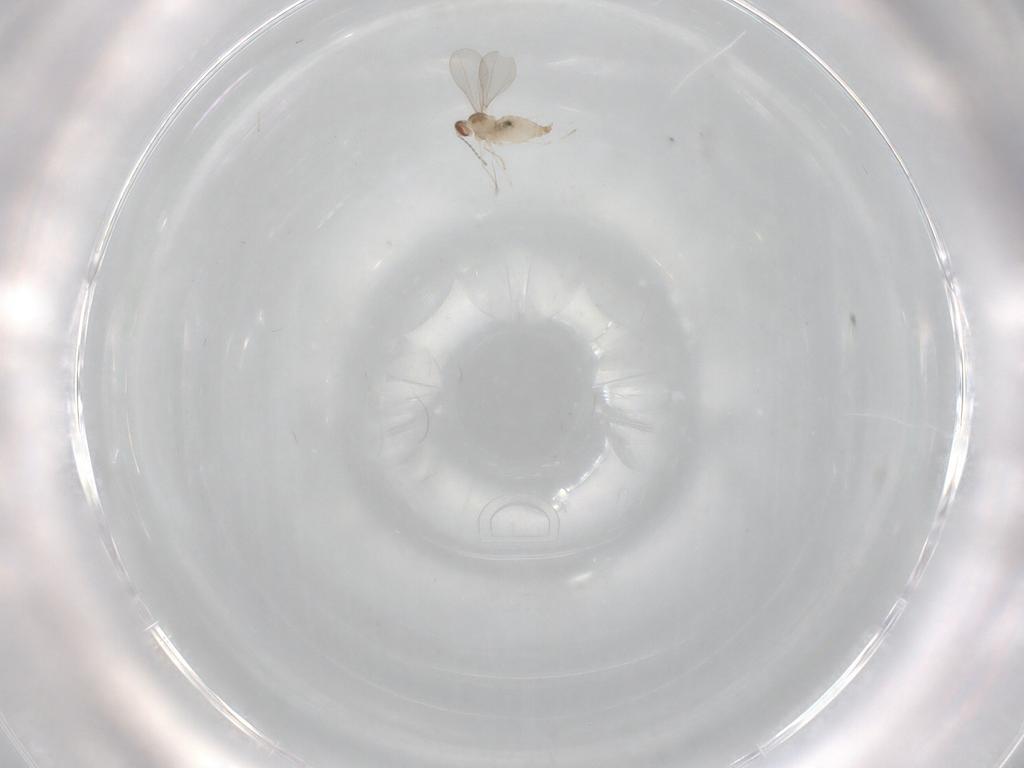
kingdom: Animalia
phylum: Arthropoda
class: Insecta
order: Diptera
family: Cecidomyiidae
